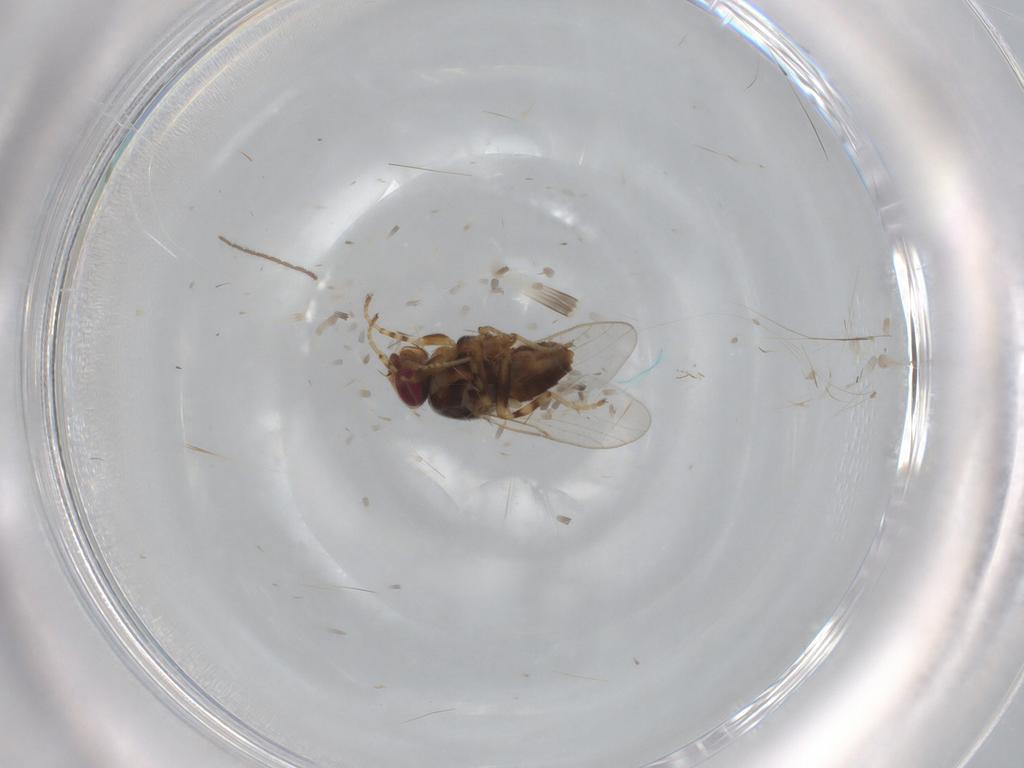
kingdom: Animalia
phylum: Arthropoda
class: Insecta
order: Diptera
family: Sciaridae
